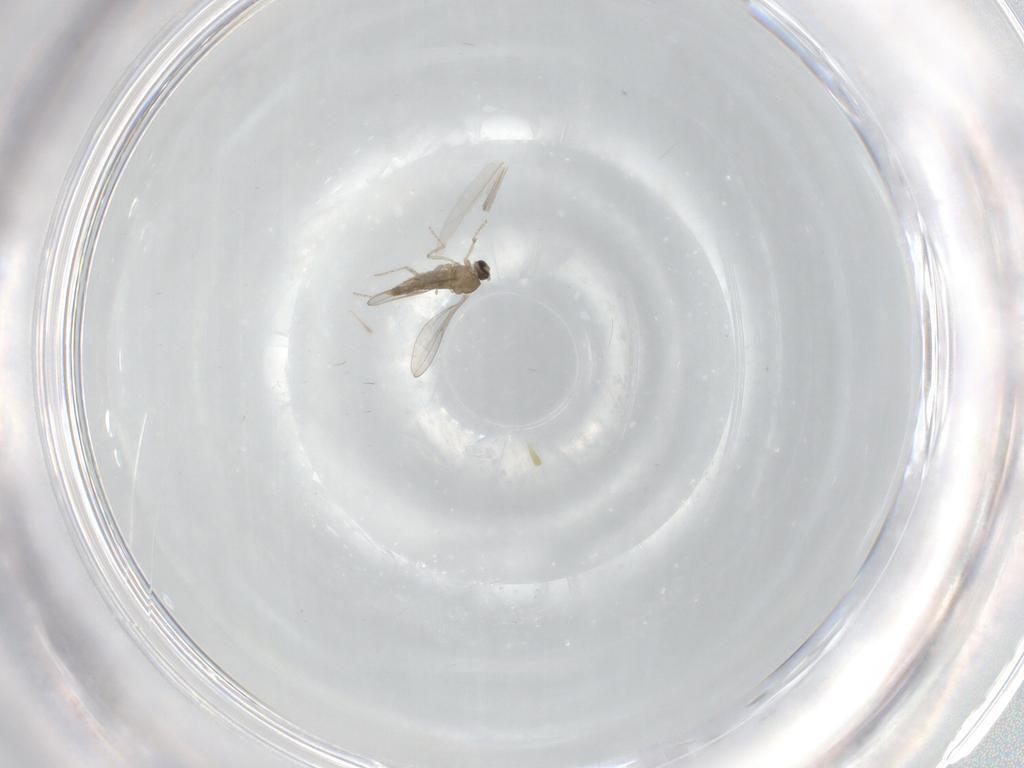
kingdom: Animalia
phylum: Arthropoda
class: Insecta
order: Diptera
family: Cecidomyiidae
